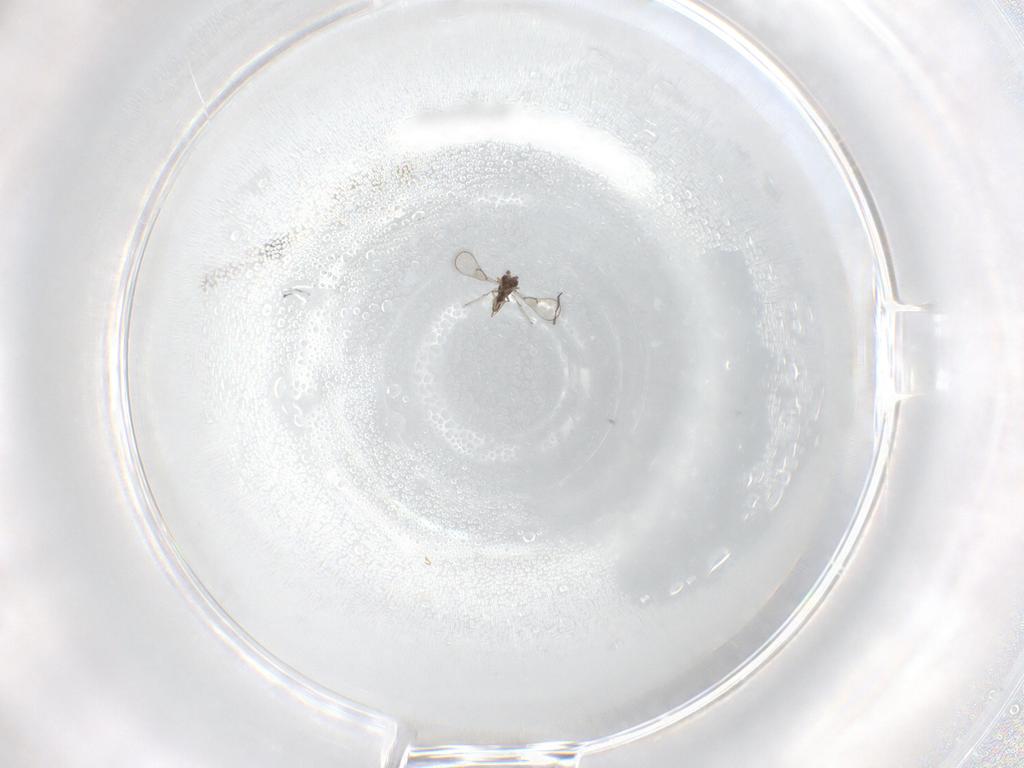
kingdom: Animalia
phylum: Arthropoda
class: Insecta
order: Hymenoptera
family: Trichogrammatidae
